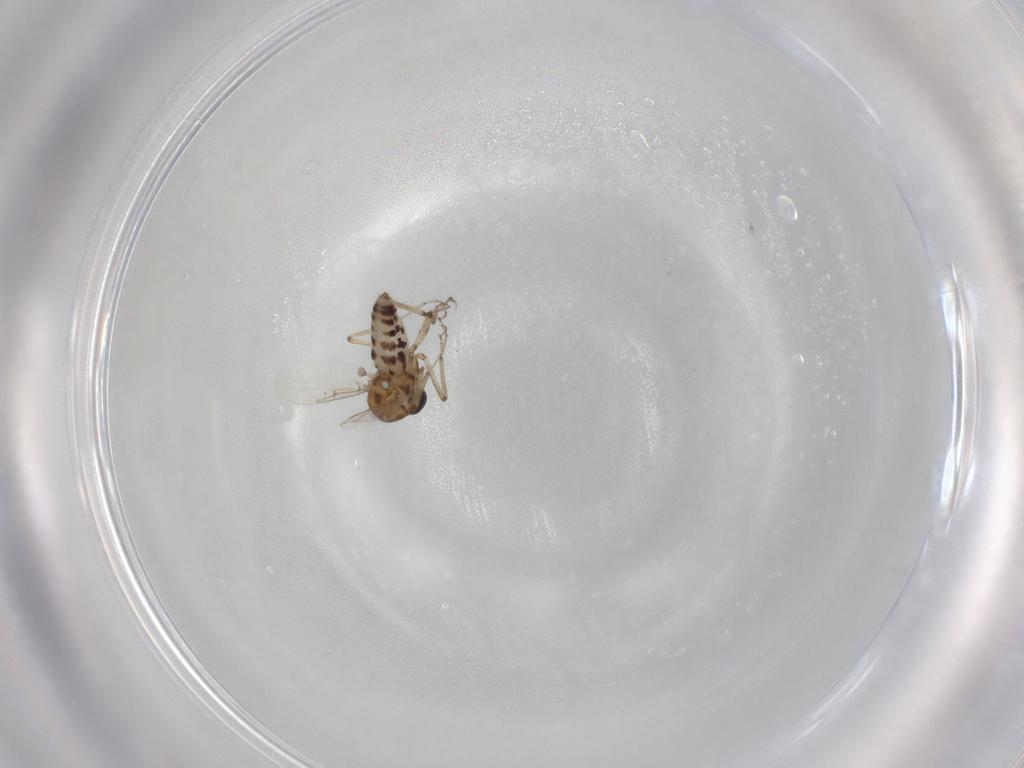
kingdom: Animalia
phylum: Arthropoda
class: Insecta
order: Diptera
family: Ceratopogonidae
